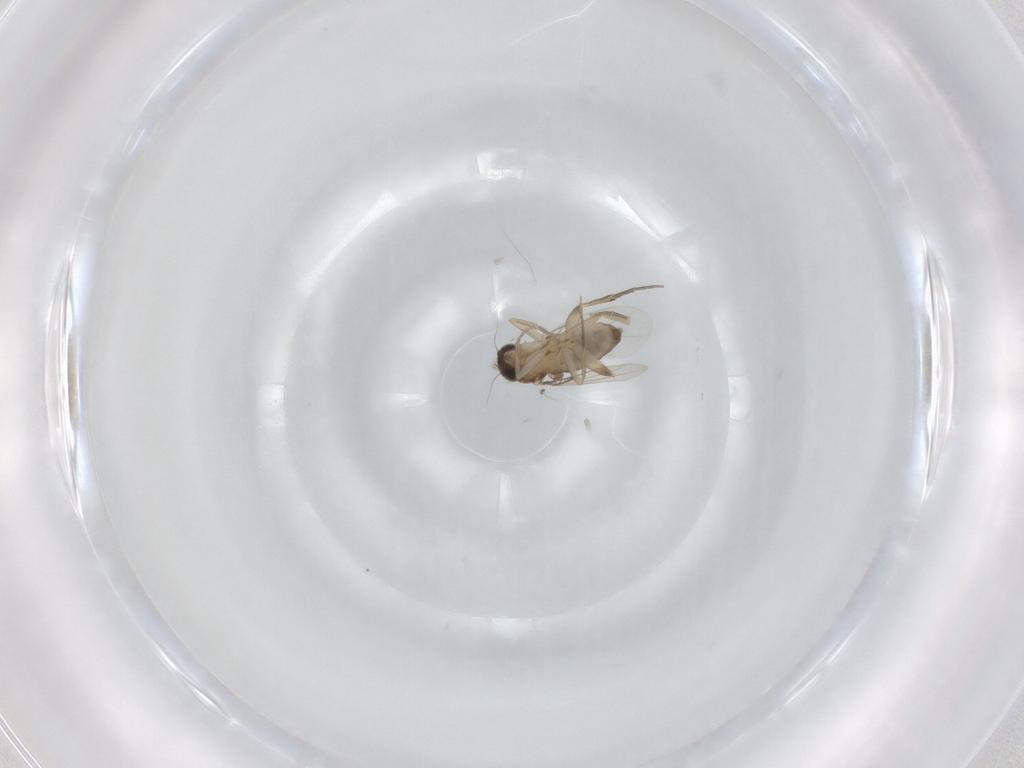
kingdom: Animalia
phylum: Arthropoda
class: Insecta
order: Diptera
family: Phoridae
